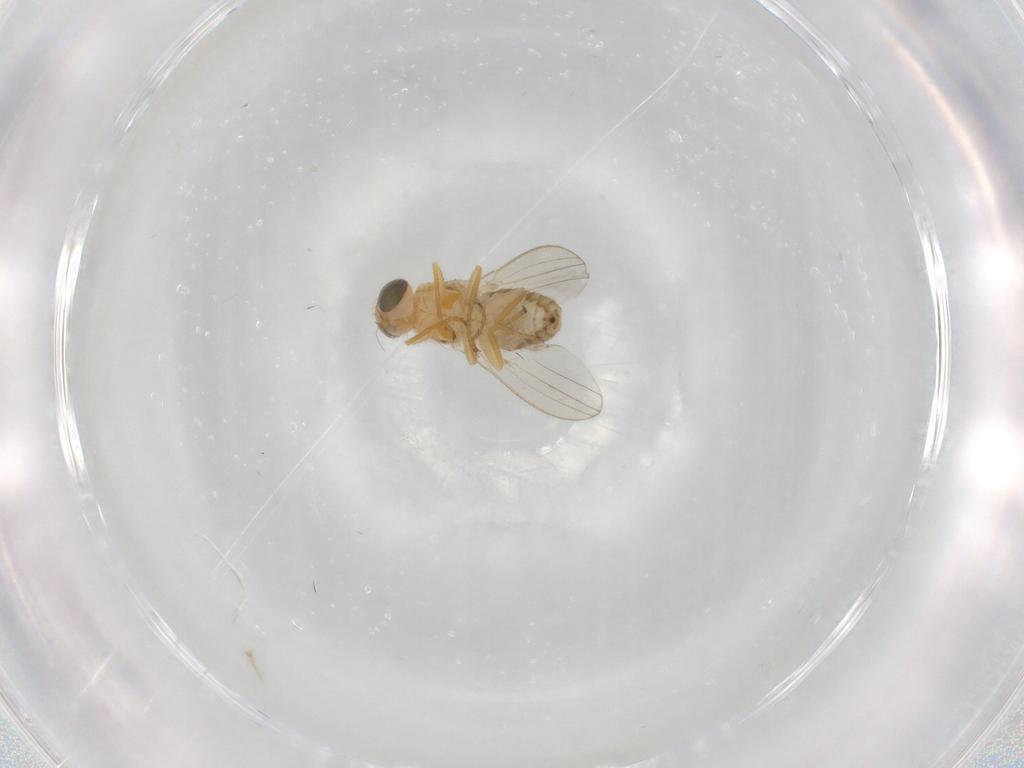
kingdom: Animalia
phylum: Arthropoda
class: Insecta
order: Diptera
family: Chyromyidae
